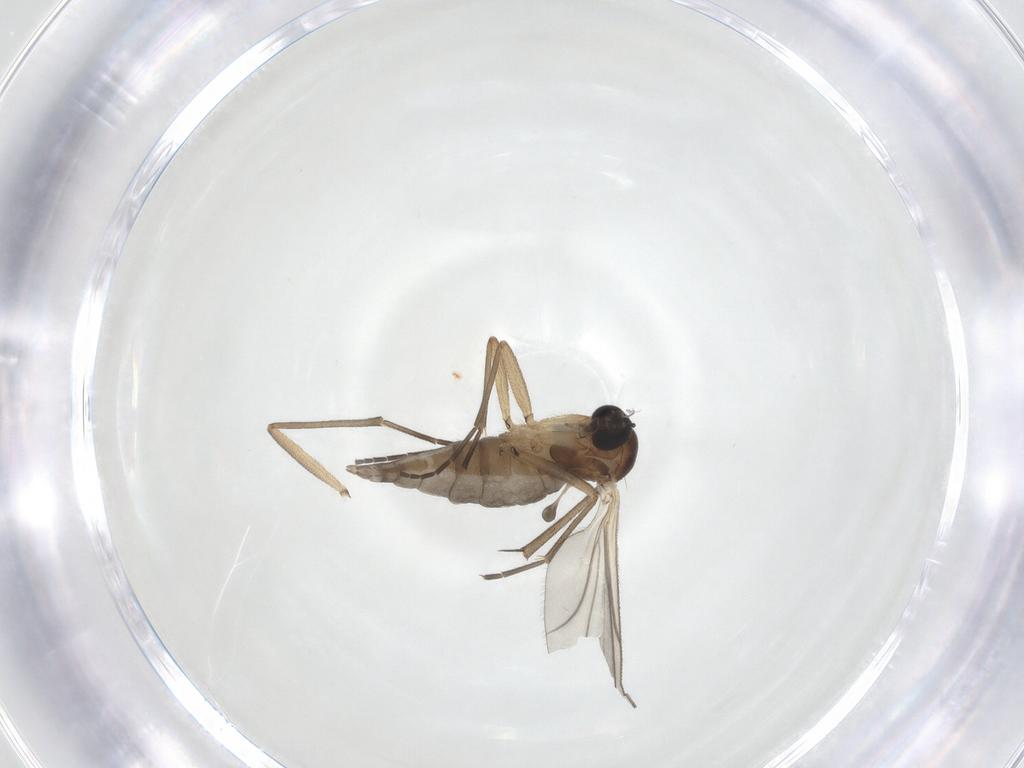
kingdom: Animalia
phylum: Arthropoda
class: Insecta
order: Diptera
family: Sciaridae
